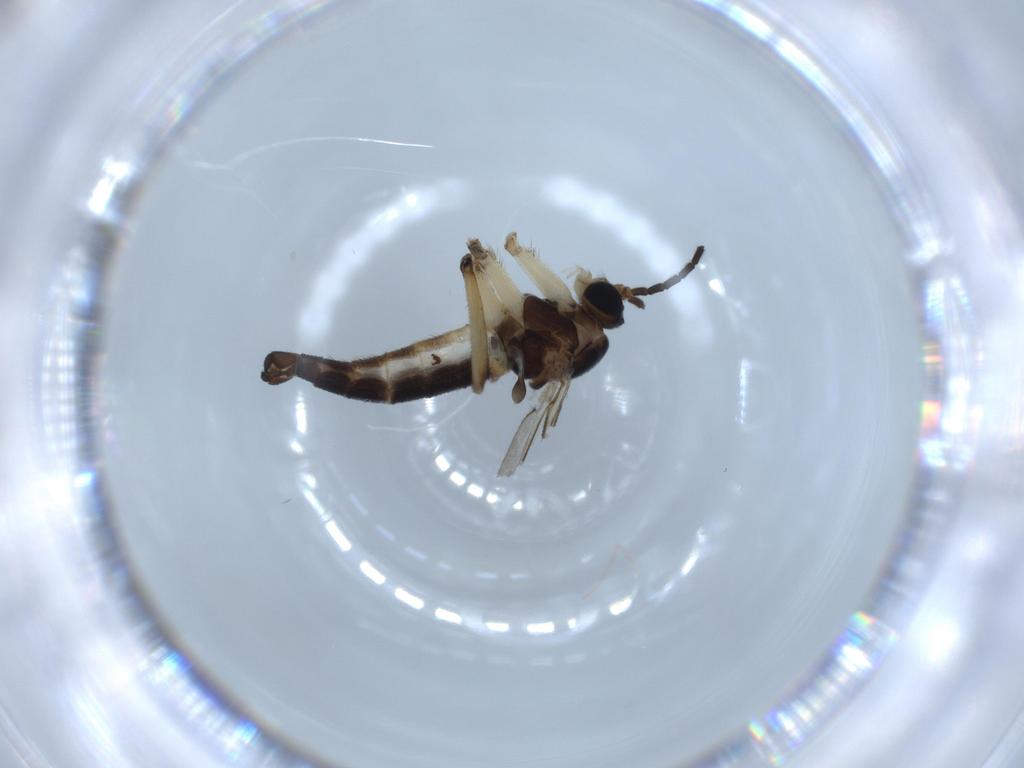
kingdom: Animalia
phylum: Arthropoda
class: Insecta
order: Diptera
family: Sciaridae
